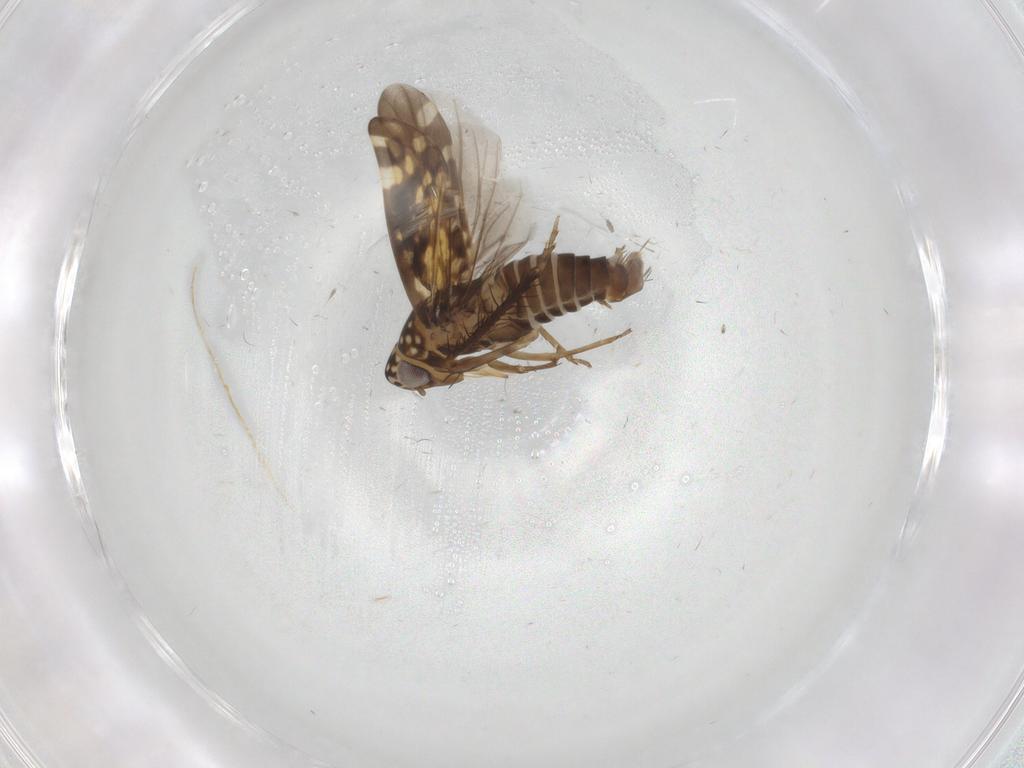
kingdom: Animalia
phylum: Arthropoda
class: Insecta
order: Hemiptera
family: Cicadellidae
